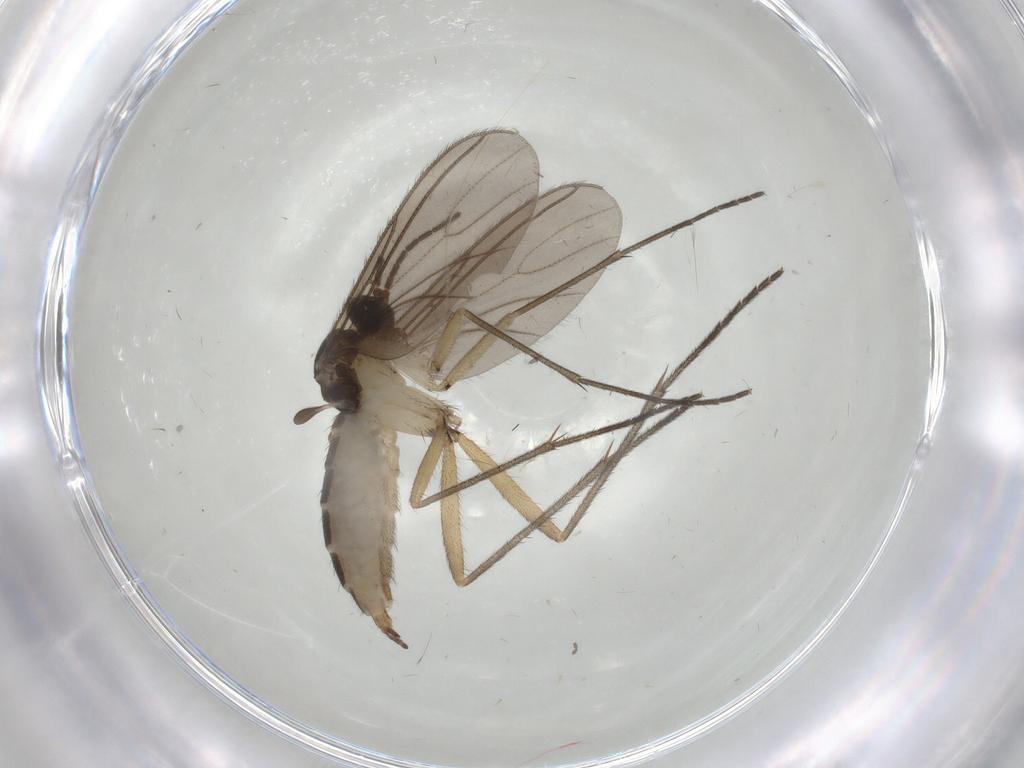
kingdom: Animalia
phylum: Arthropoda
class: Insecta
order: Diptera
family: Sciaridae
